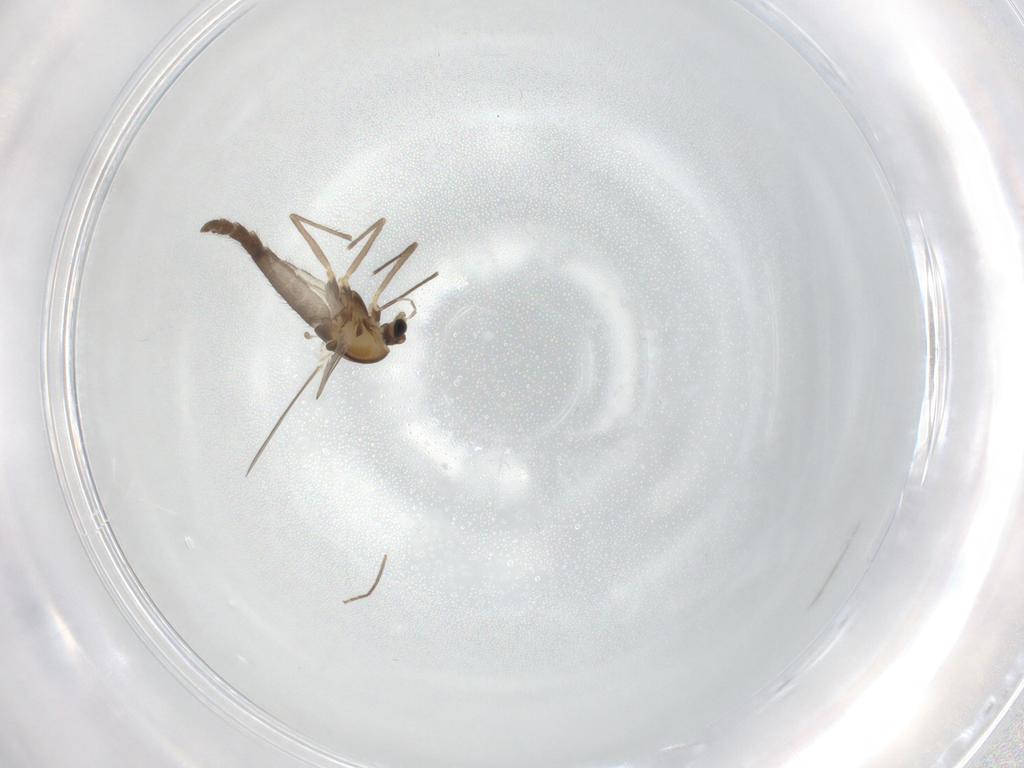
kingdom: Animalia
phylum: Arthropoda
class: Insecta
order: Diptera
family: Chironomidae
